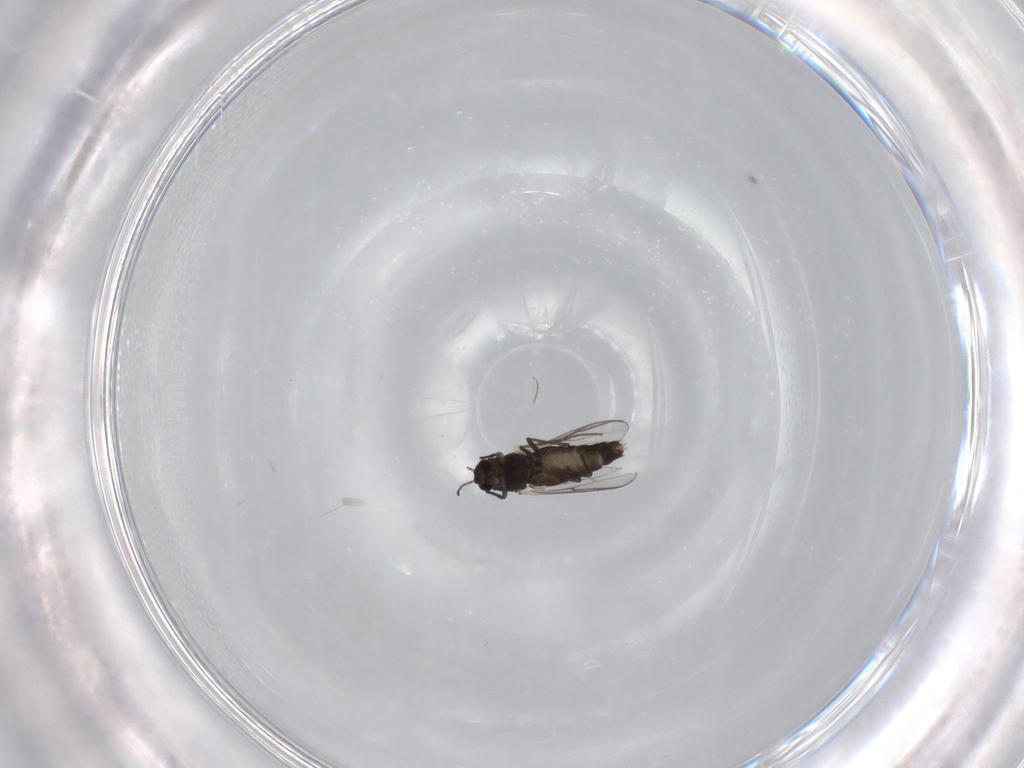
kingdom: Animalia
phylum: Arthropoda
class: Insecta
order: Diptera
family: Chironomidae
